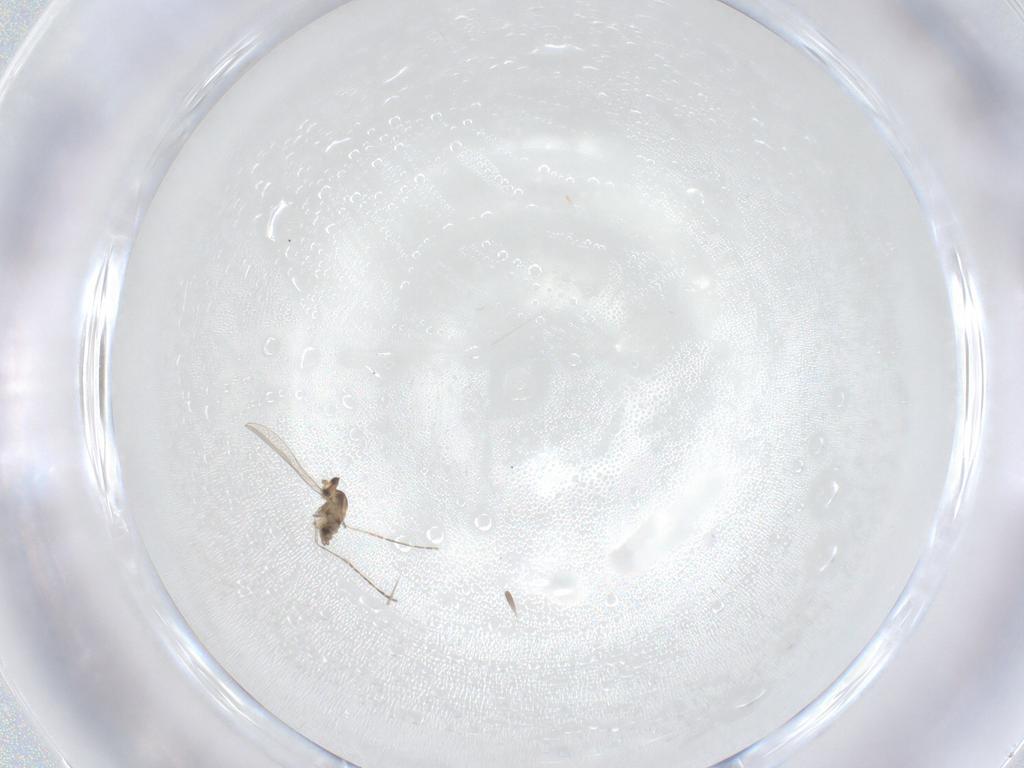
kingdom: Animalia
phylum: Arthropoda
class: Insecta
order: Diptera
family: Cecidomyiidae
